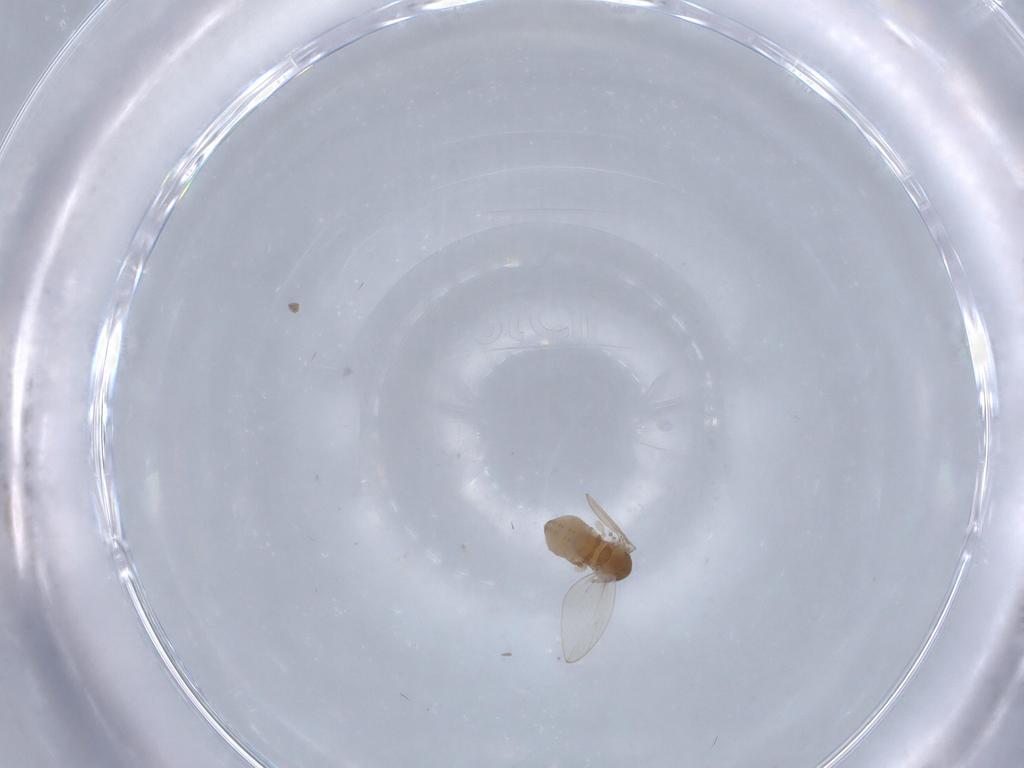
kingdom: Animalia
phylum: Arthropoda
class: Insecta
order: Diptera
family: Psychodidae
